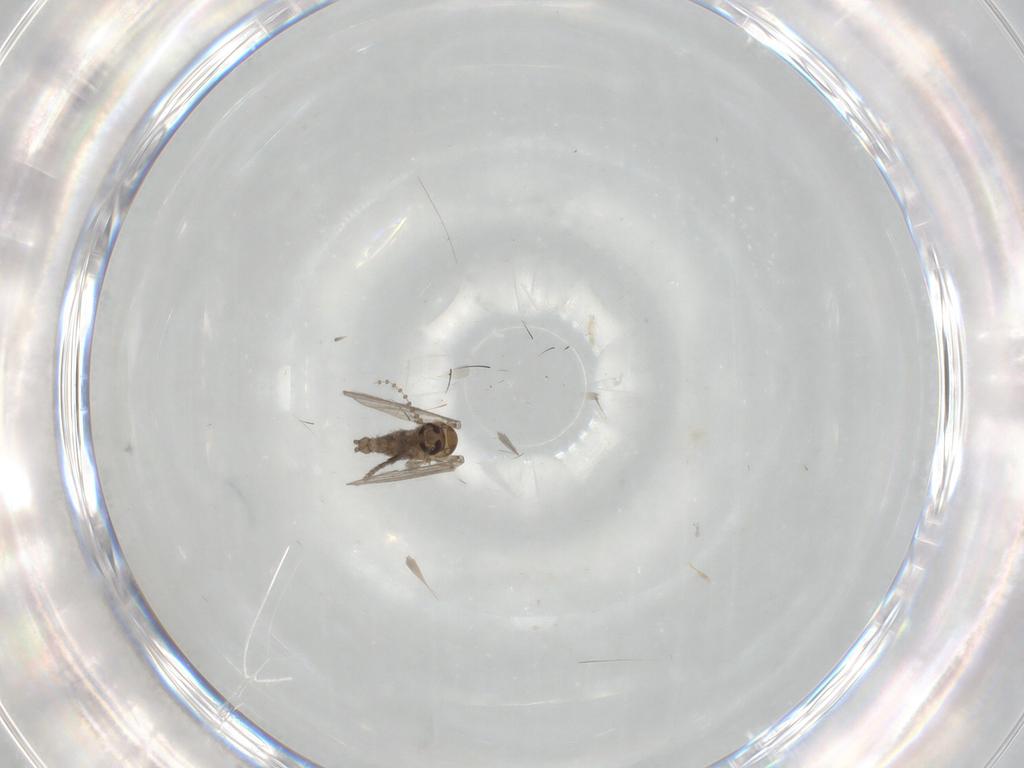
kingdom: Animalia
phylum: Arthropoda
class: Insecta
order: Diptera
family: Psychodidae
